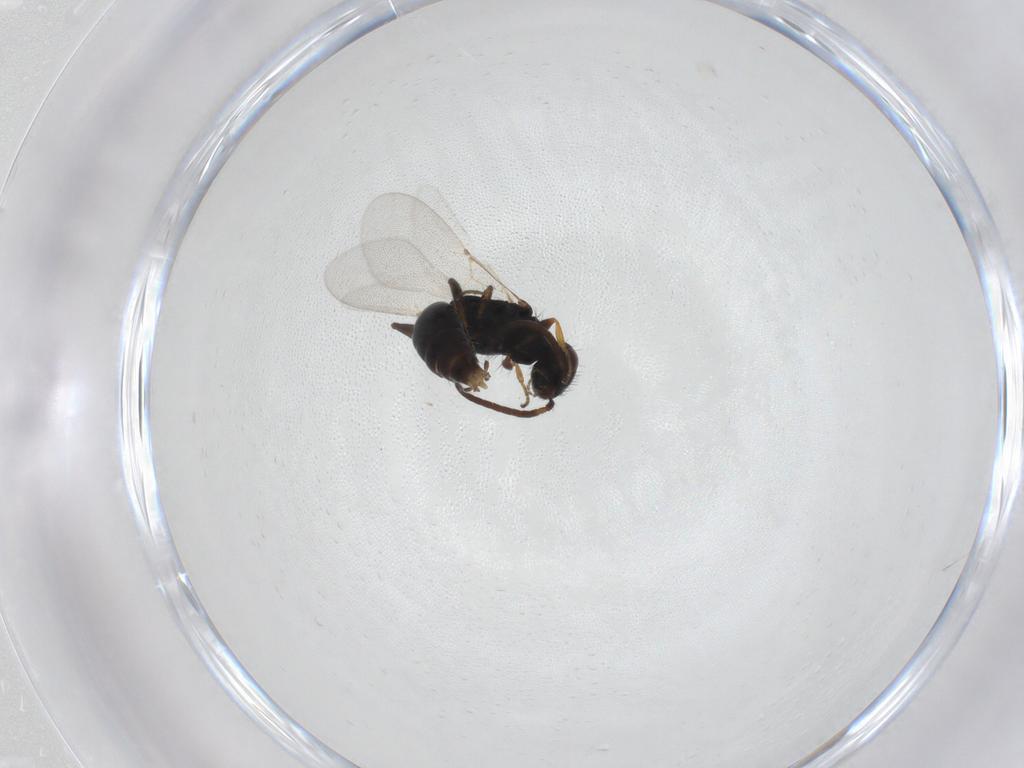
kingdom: Animalia
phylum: Arthropoda
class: Insecta
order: Hymenoptera
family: Bethylidae
